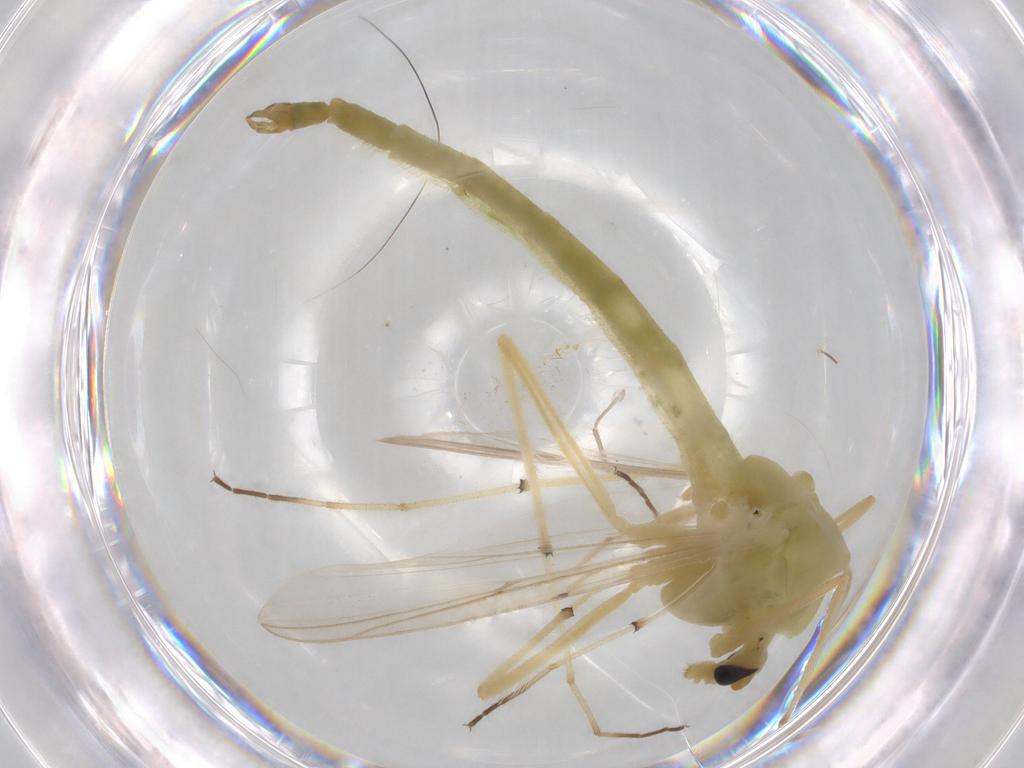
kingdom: Animalia
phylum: Arthropoda
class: Insecta
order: Diptera
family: Chironomidae
